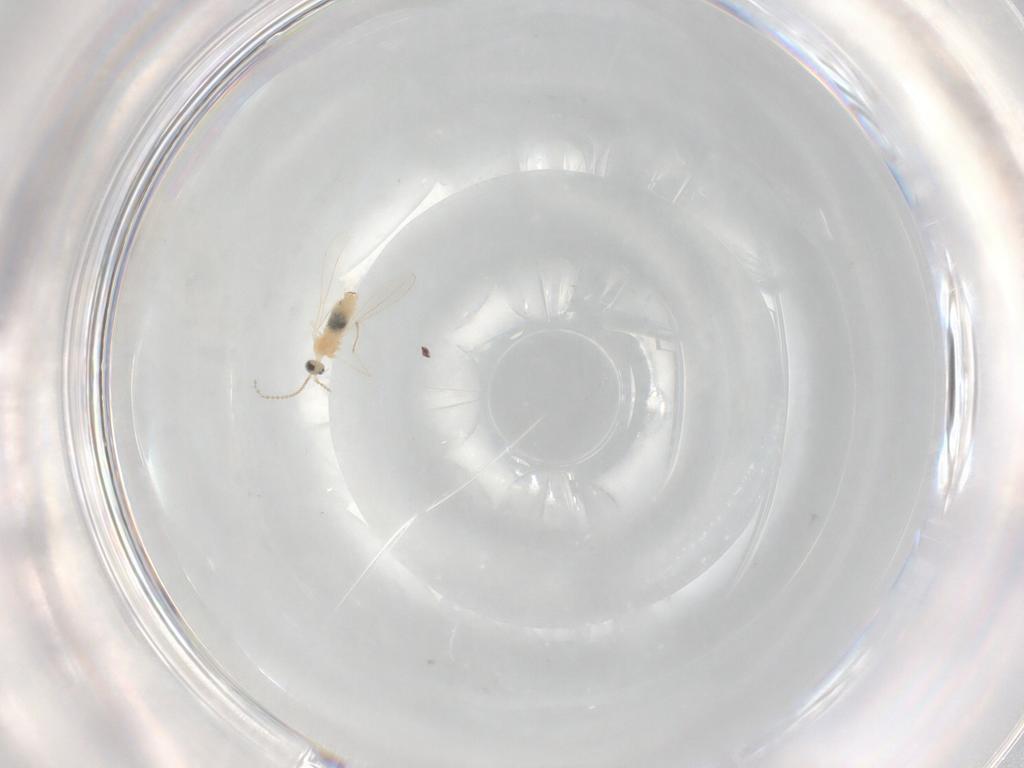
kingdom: Animalia
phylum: Arthropoda
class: Insecta
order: Diptera
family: Cecidomyiidae
